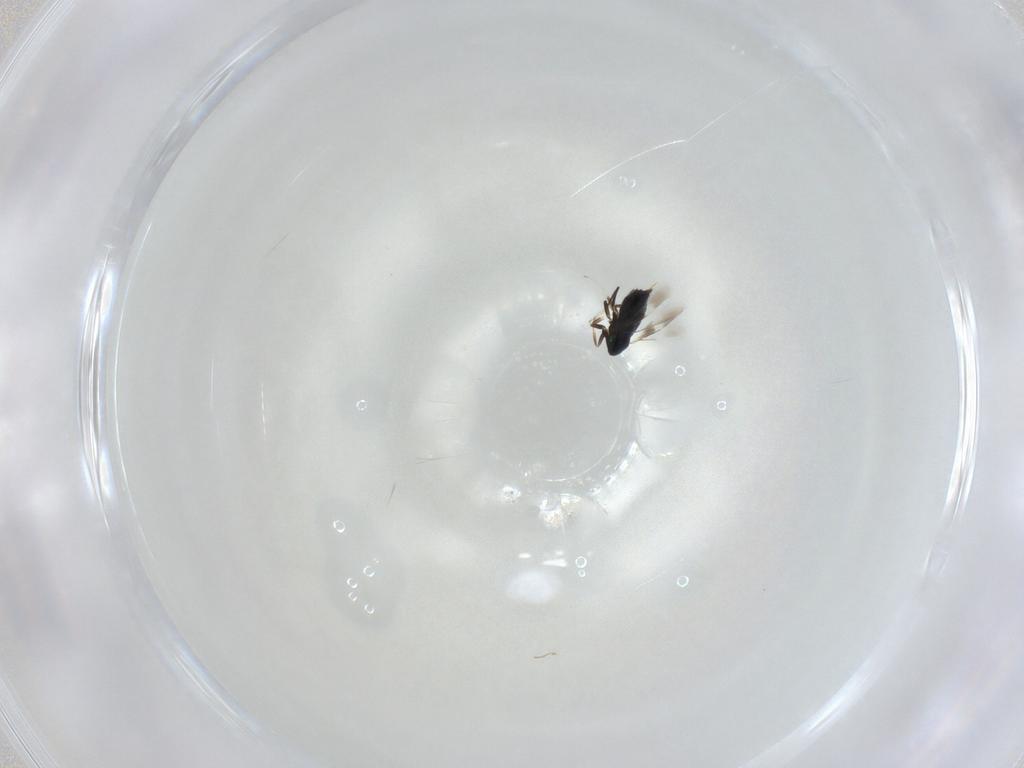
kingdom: Animalia
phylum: Arthropoda
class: Insecta
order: Hymenoptera
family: Signiphoridae
